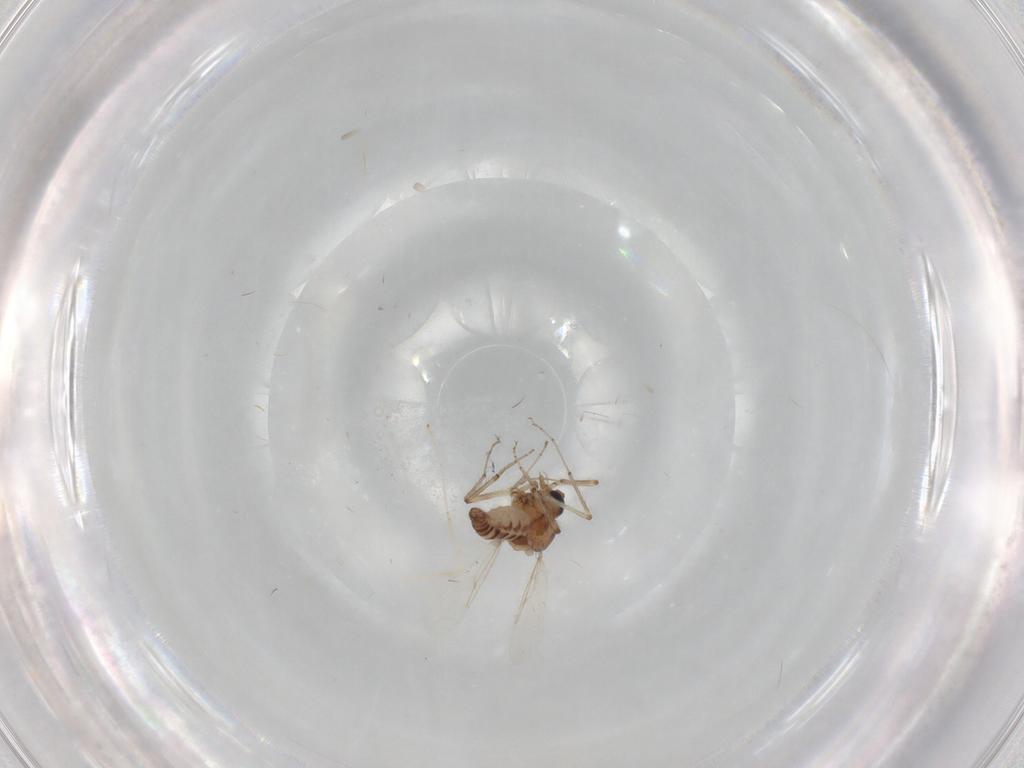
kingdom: Animalia
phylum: Arthropoda
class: Insecta
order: Diptera
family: Ceratopogonidae
